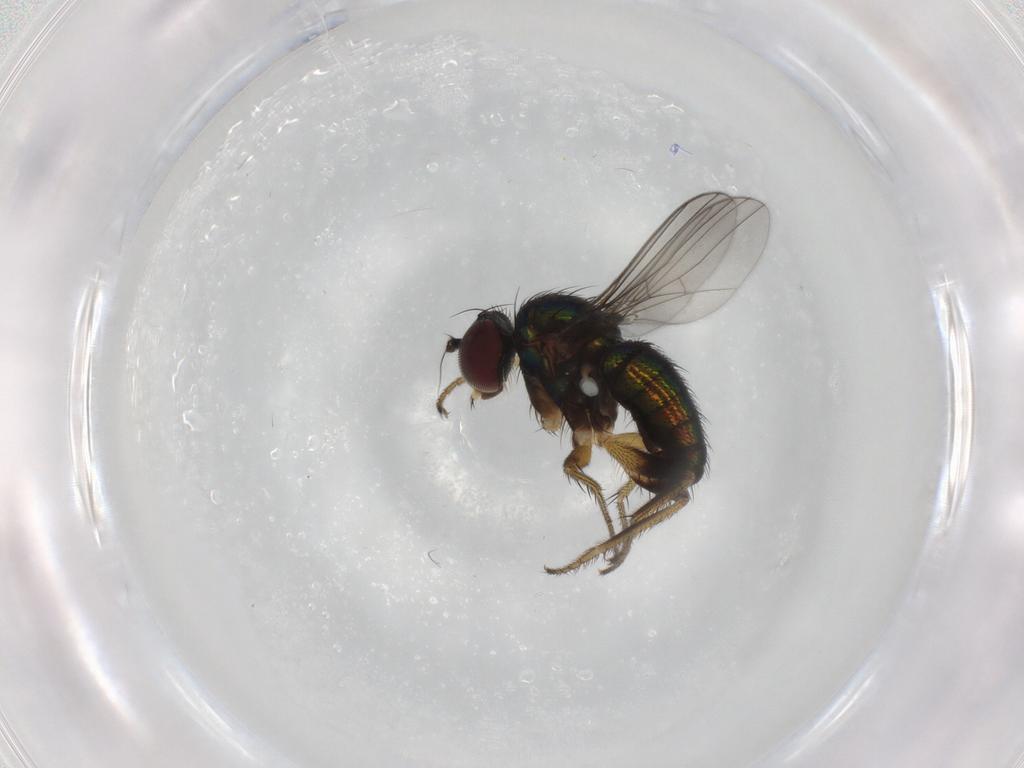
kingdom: Animalia
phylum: Arthropoda
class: Insecta
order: Diptera
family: Dolichopodidae
